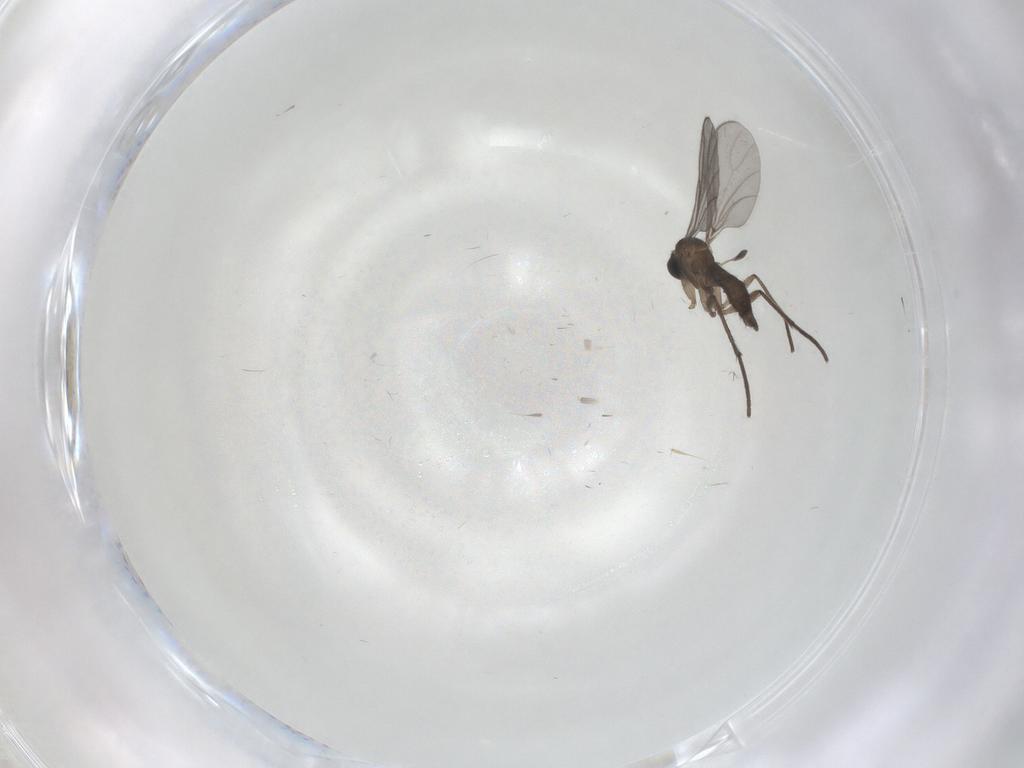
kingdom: Animalia
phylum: Arthropoda
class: Insecta
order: Diptera
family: Sciaridae
